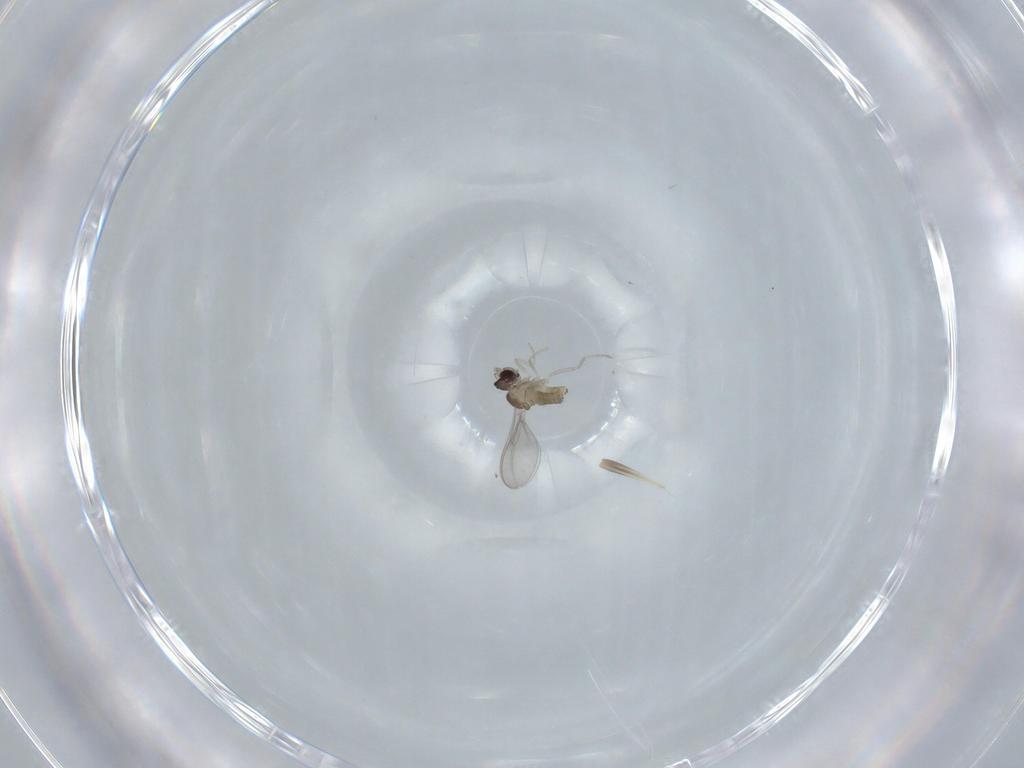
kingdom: Animalia
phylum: Arthropoda
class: Insecta
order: Diptera
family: Cecidomyiidae
